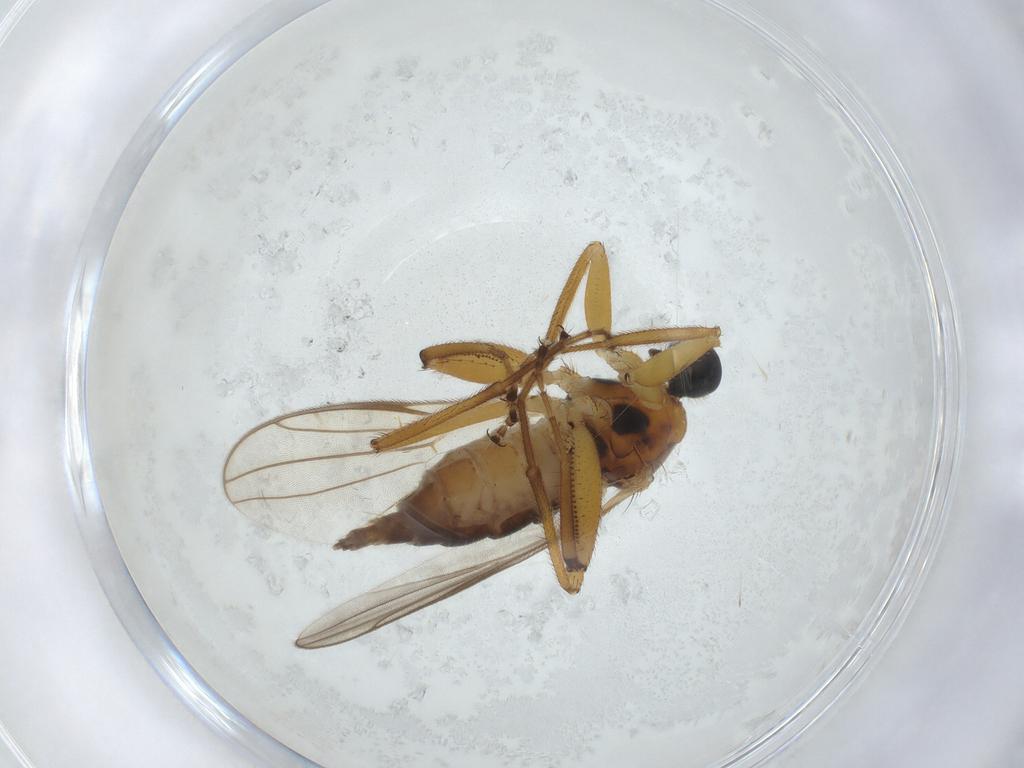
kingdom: Animalia
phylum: Arthropoda
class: Insecta
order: Diptera
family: Hybotidae
